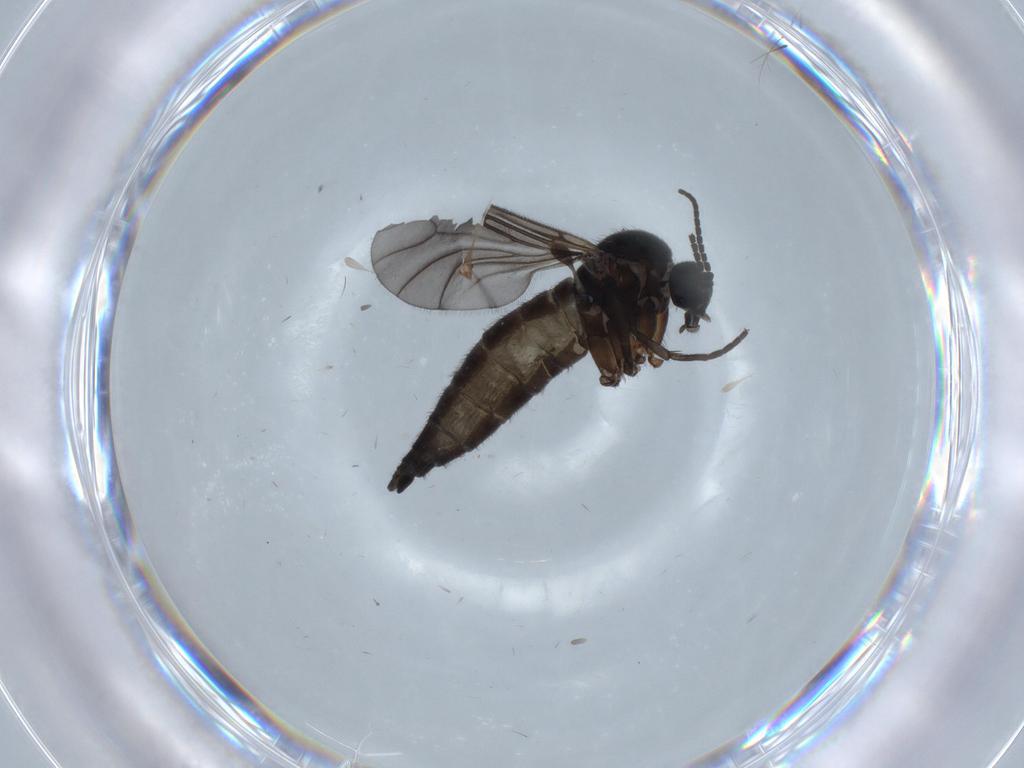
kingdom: Animalia
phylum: Arthropoda
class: Insecta
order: Diptera
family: Sciaridae
